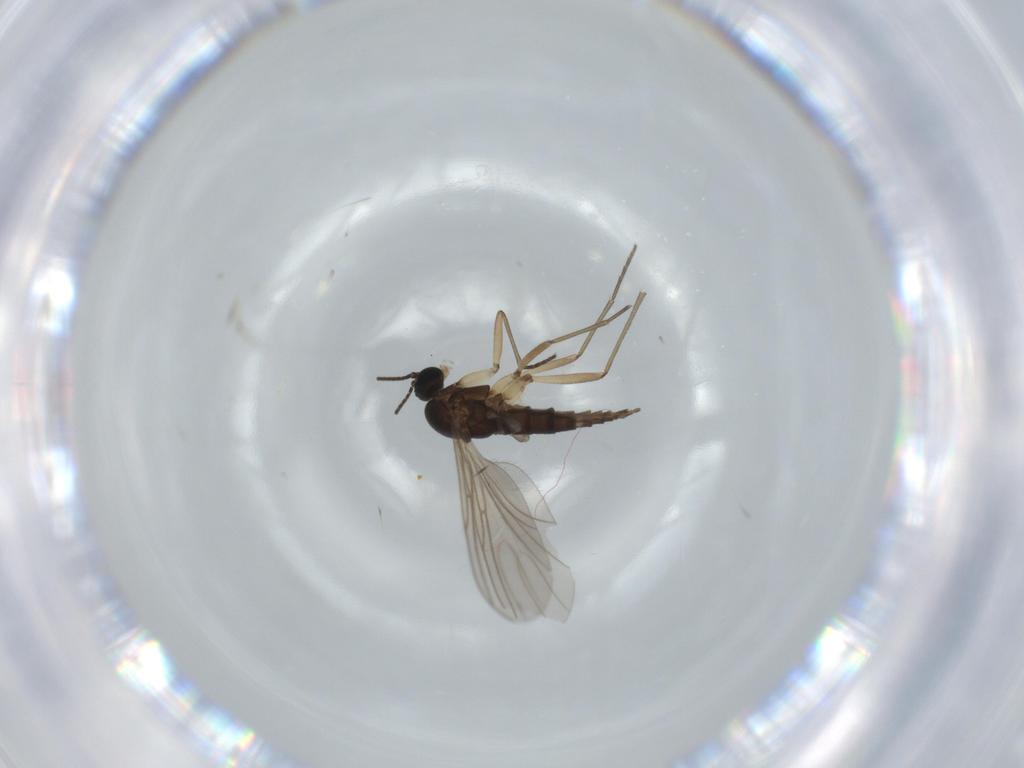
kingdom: Animalia
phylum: Arthropoda
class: Insecta
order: Diptera
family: Sciaridae
